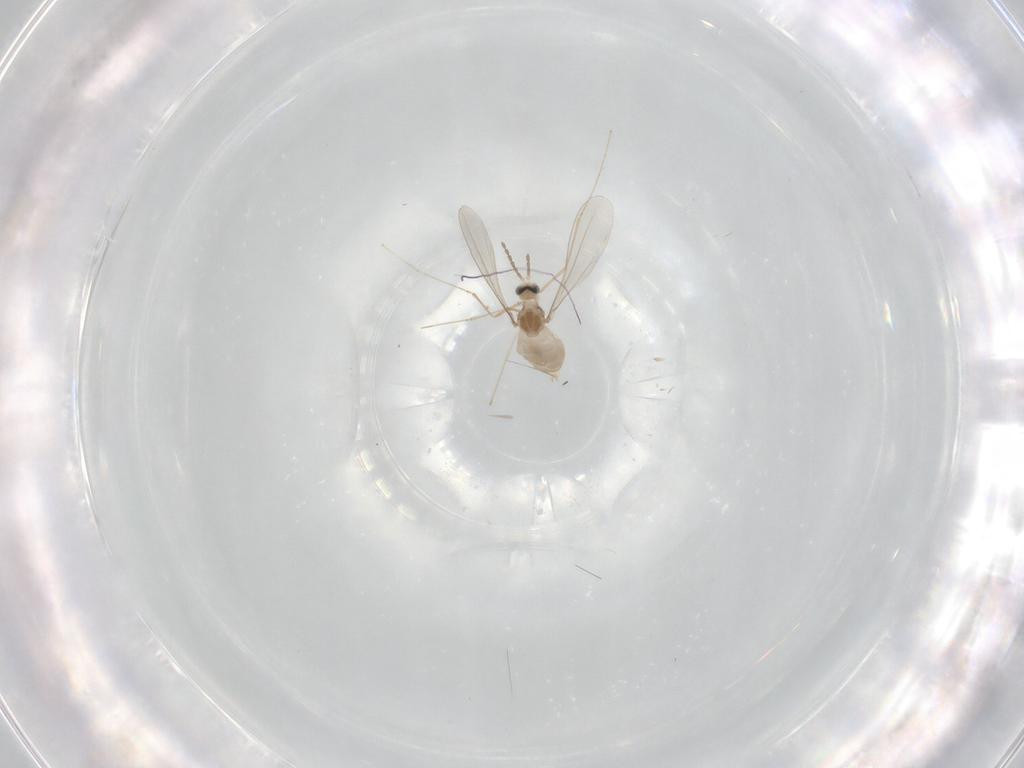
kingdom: Animalia
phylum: Arthropoda
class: Insecta
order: Diptera
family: Cecidomyiidae
